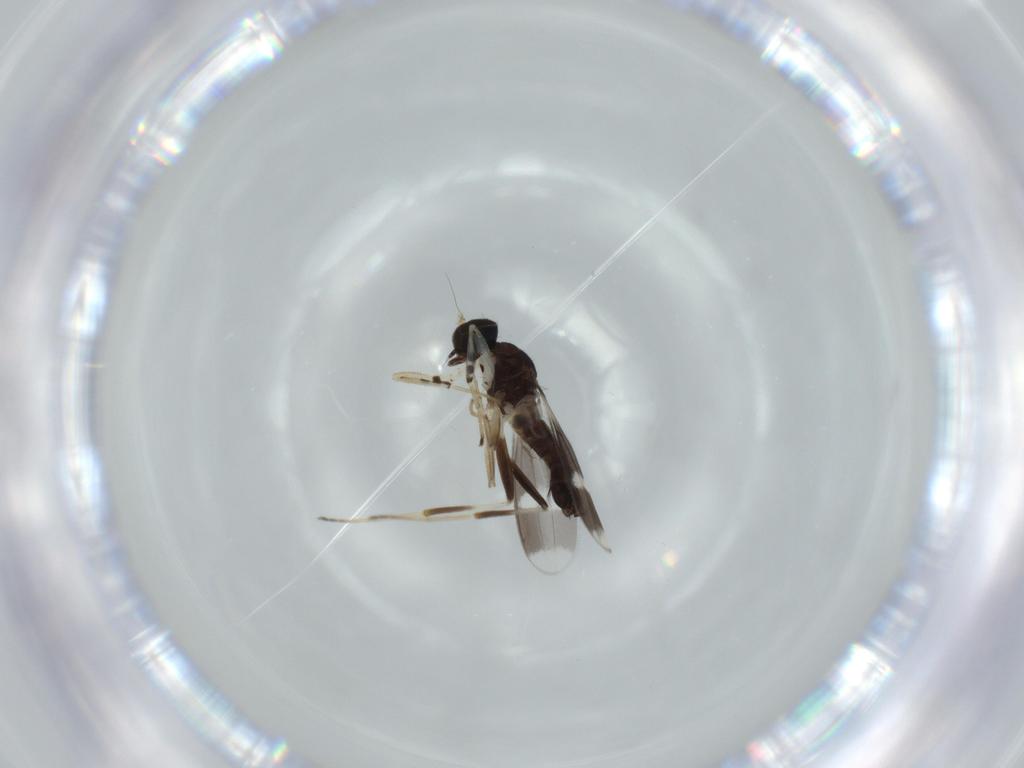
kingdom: Animalia
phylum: Arthropoda
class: Insecta
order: Diptera
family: Hybotidae
